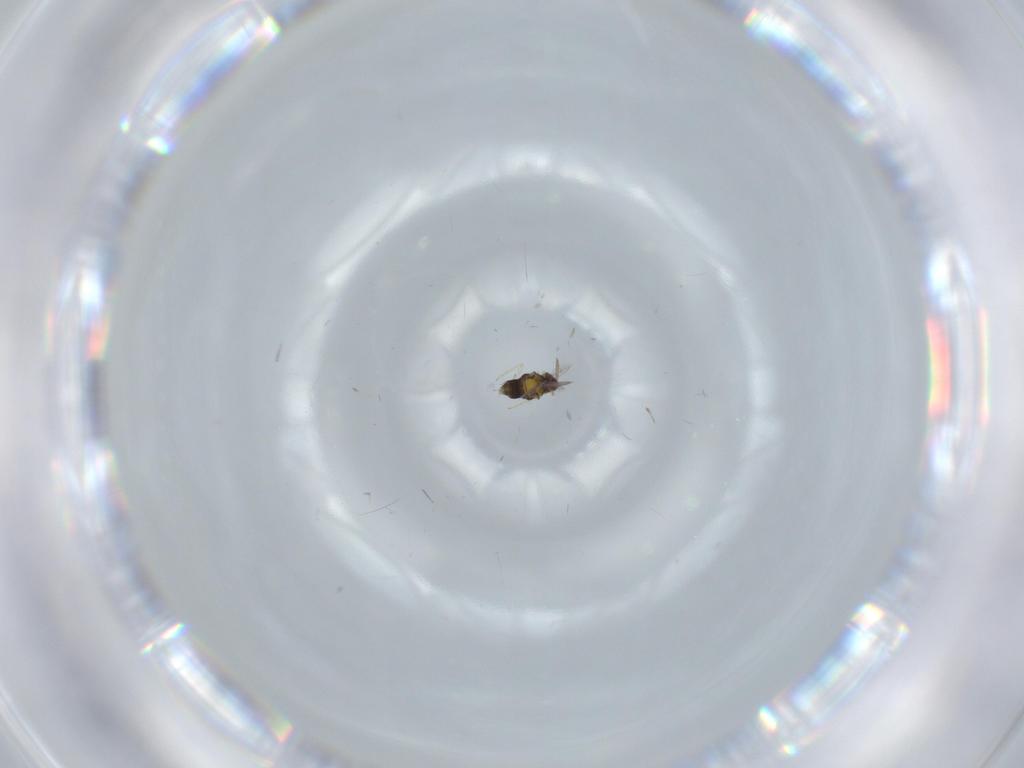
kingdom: Animalia
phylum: Arthropoda
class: Insecta
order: Hymenoptera
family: Aphelinidae
